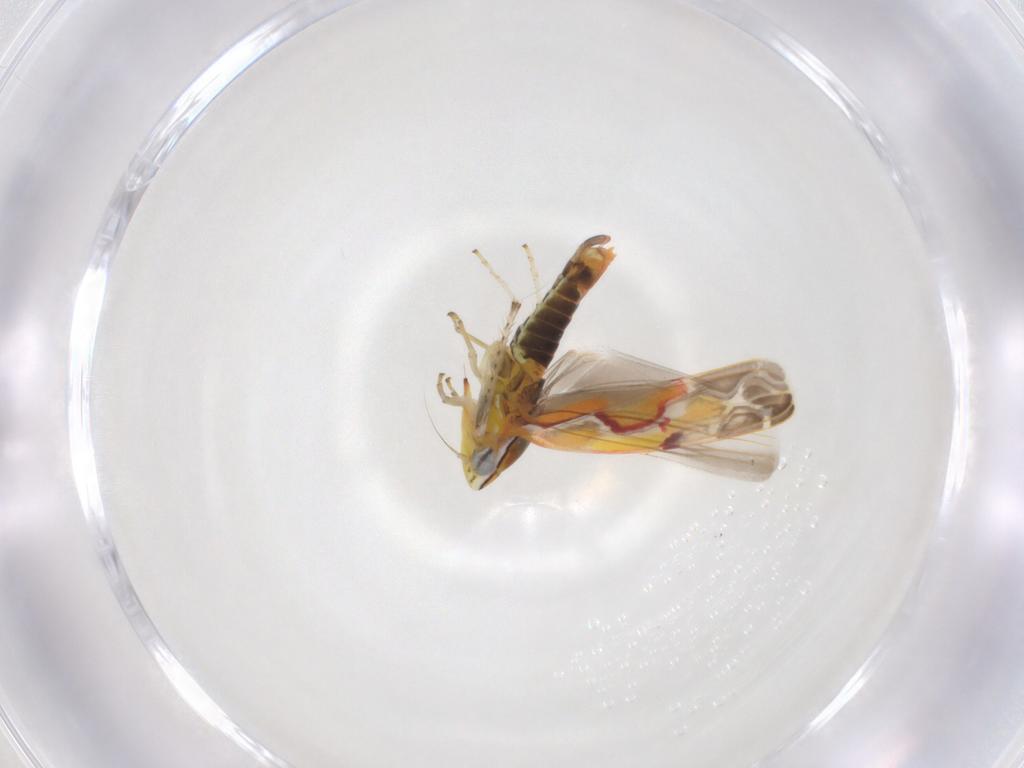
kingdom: Animalia
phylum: Arthropoda
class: Insecta
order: Hemiptera
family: Cicadellidae
